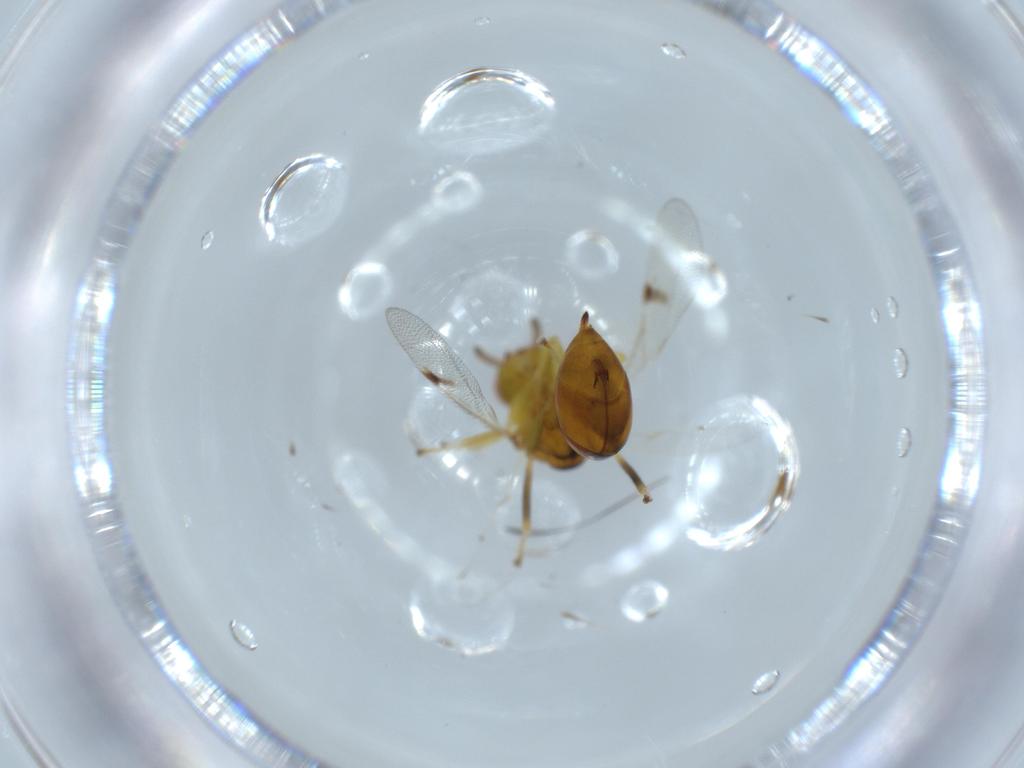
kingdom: Animalia
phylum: Arthropoda
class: Insecta
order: Hymenoptera
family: Eurytomidae
